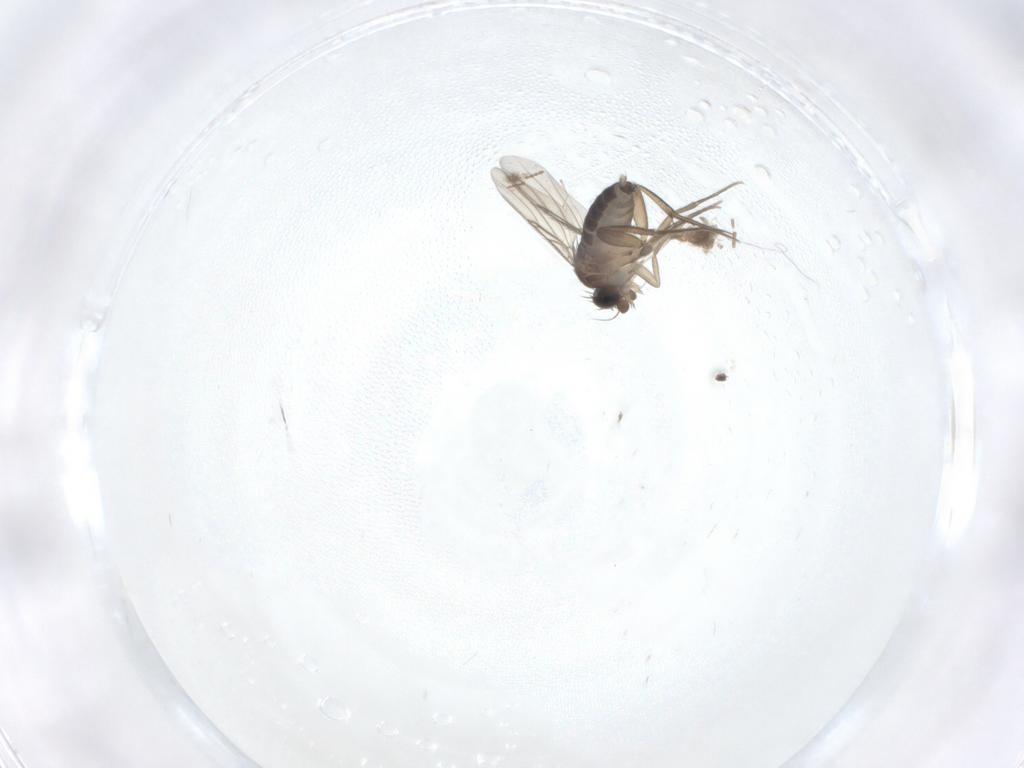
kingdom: Animalia
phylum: Arthropoda
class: Insecta
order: Diptera
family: Phoridae
